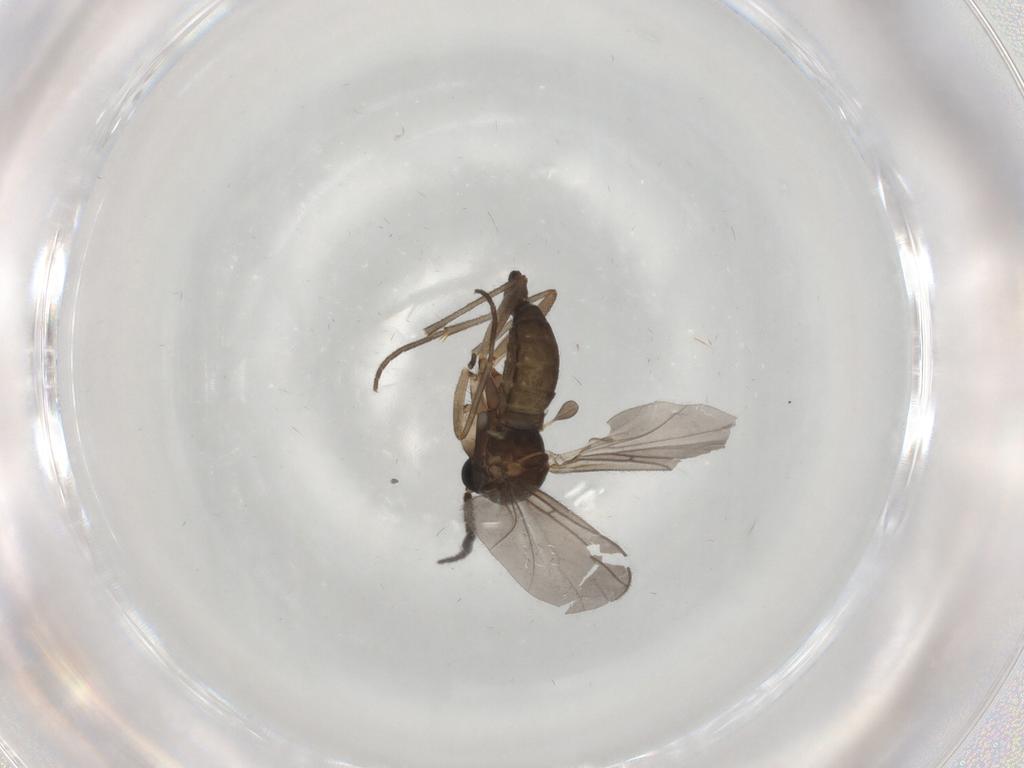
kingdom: Animalia
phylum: Arthropoda
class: Insecta
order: Diptera
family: Sciaridae
